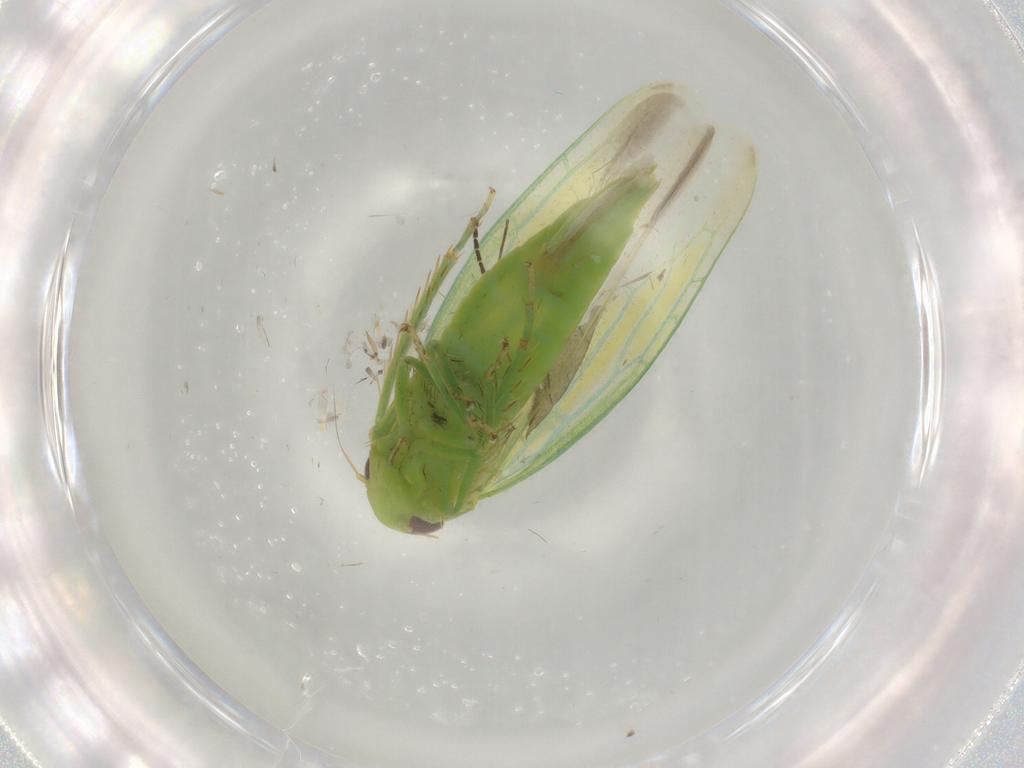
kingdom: Animalia
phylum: Arthropoda
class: Insecta
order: Hemiptera
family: Cicadellidae
